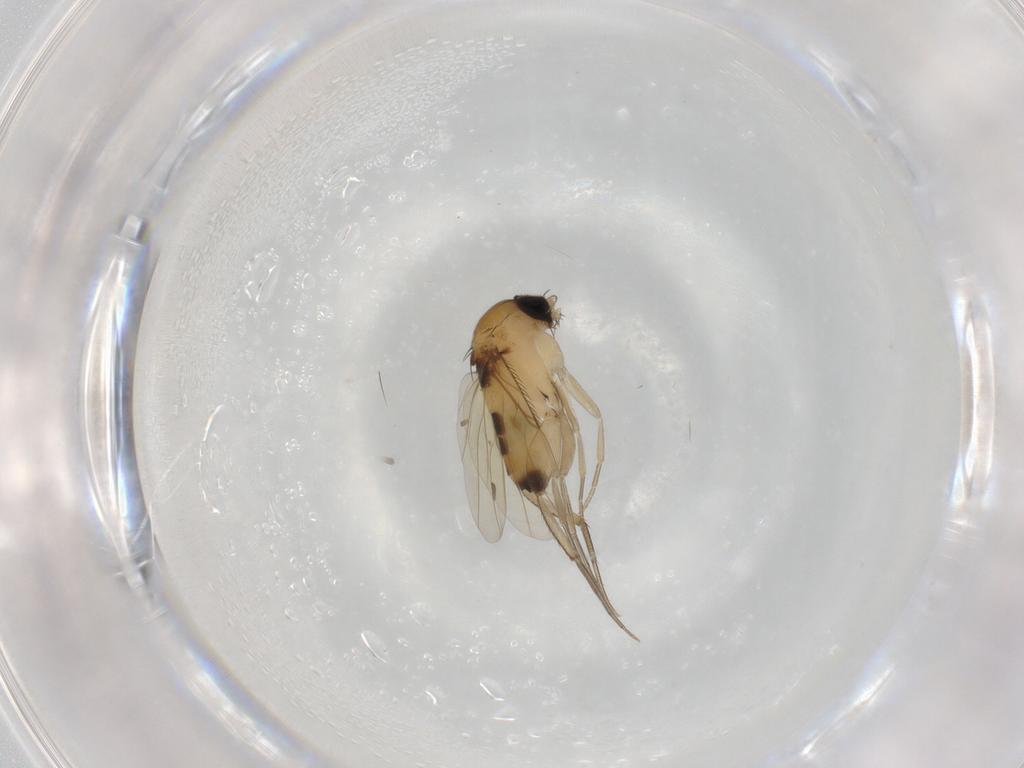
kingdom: Animalia
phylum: Arthropoda
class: Insecta
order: Diptera
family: Phoridae
